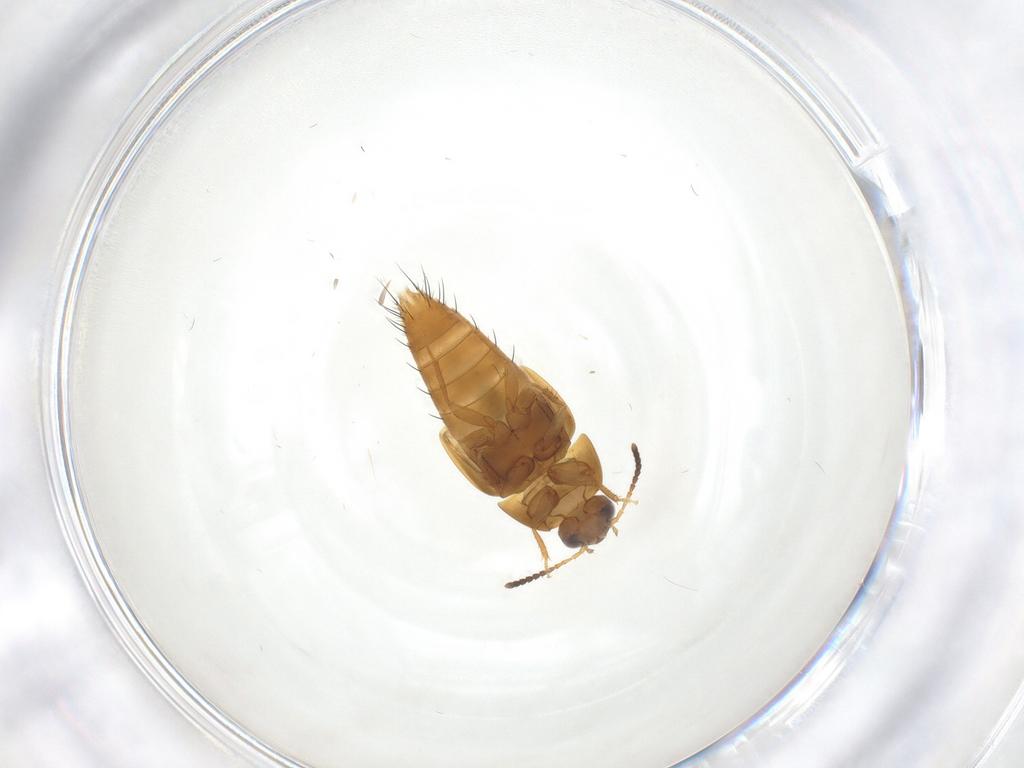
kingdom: Animalia
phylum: Arthropoda
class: Insecta
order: Coleoptera
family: Staphylinidae
